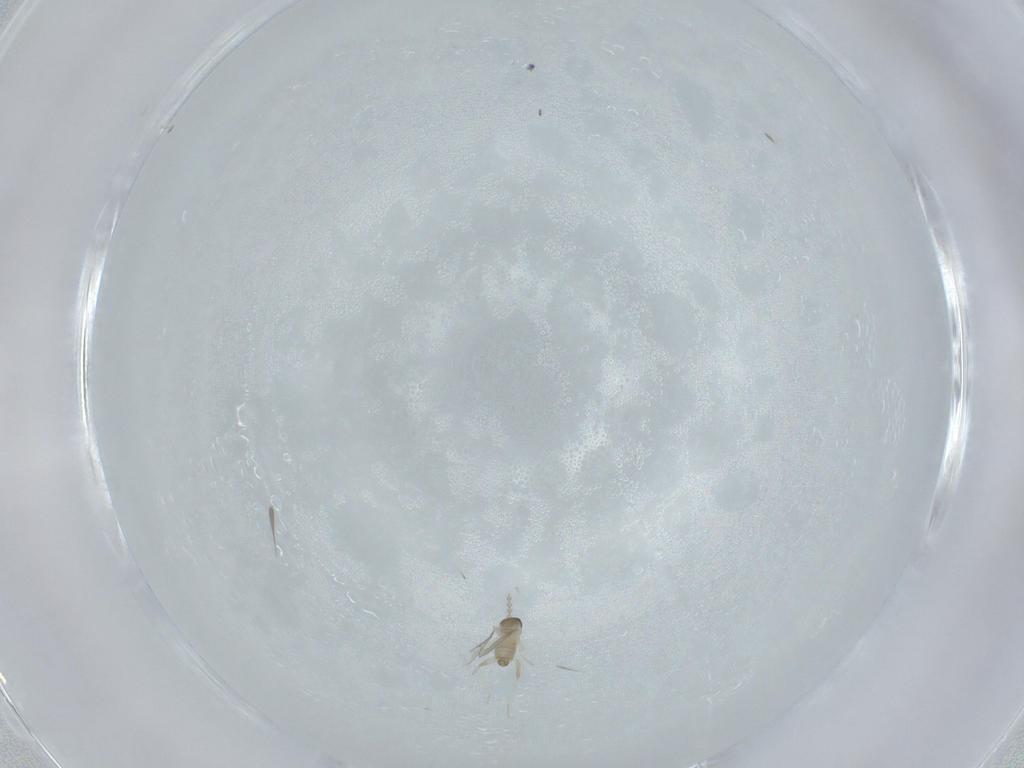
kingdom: Animalia
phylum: Arthropoda
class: Insecta
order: Diptera
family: Cecidomyiidae
